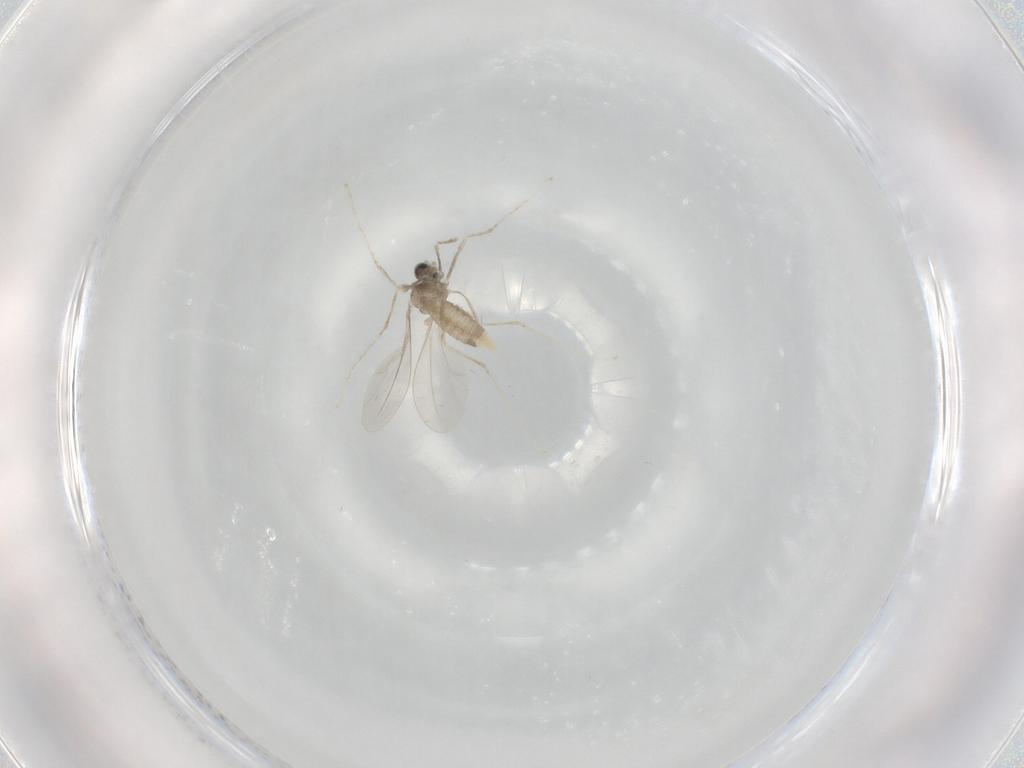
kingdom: Animalia
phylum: Arthropoda
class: Insecta
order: Diptera
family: Cecidomyiidae
